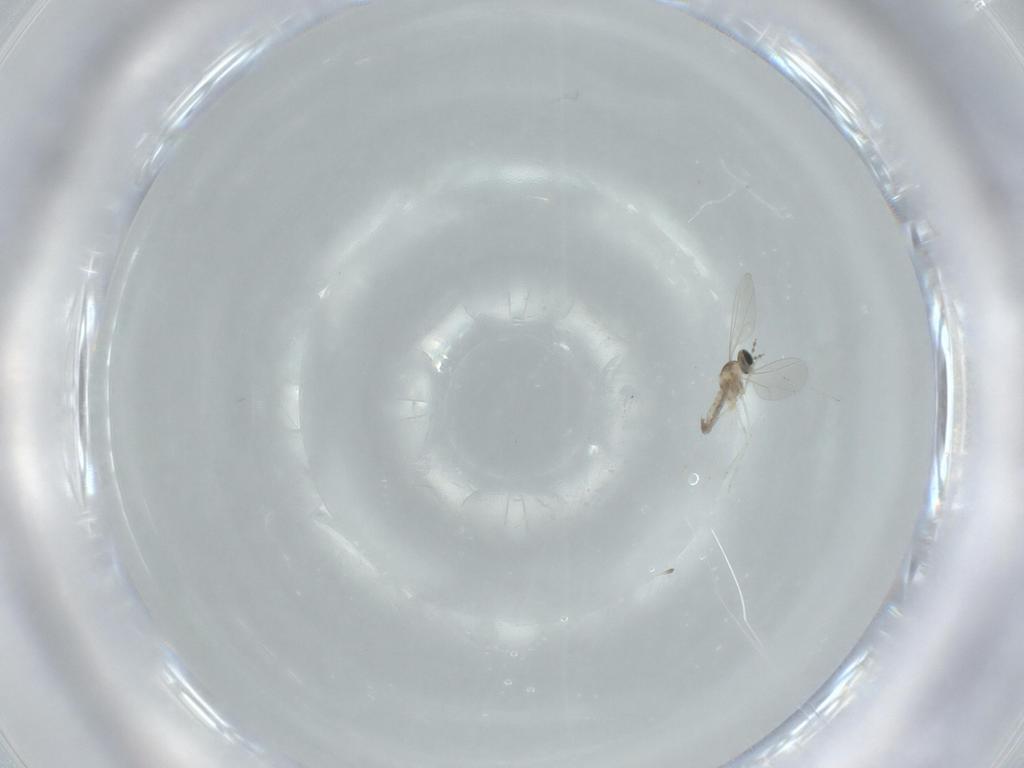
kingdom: Animalia
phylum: Arthropoda
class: Insecta
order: Diptera
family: Cecidomyiidae
